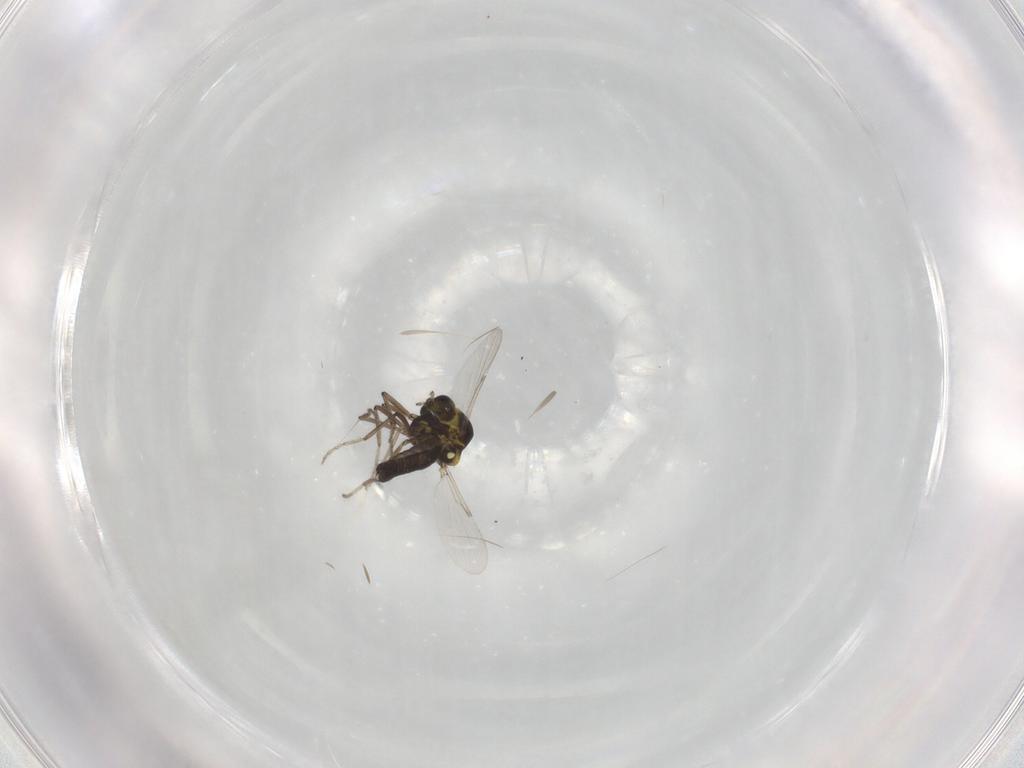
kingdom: Animalia
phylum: Arthropoda
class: Insecta
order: Diptera
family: Ceratopogonidae
